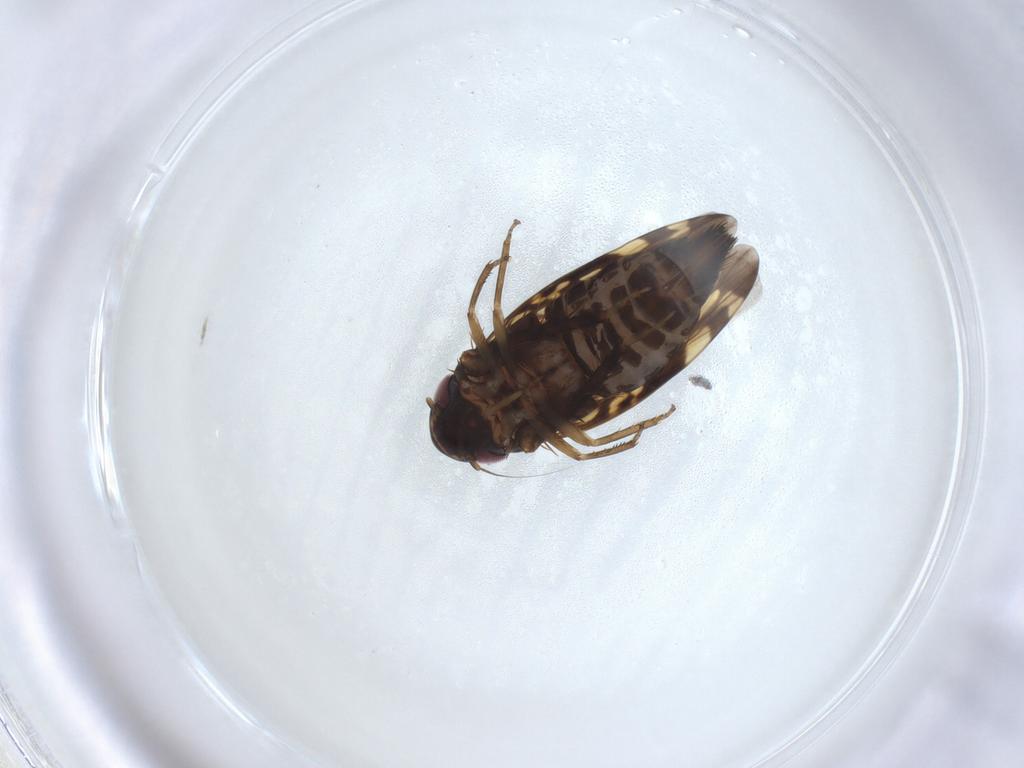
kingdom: Animalia
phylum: Arthropoda
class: Insecta
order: Hemiptera
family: Cicadellidae
